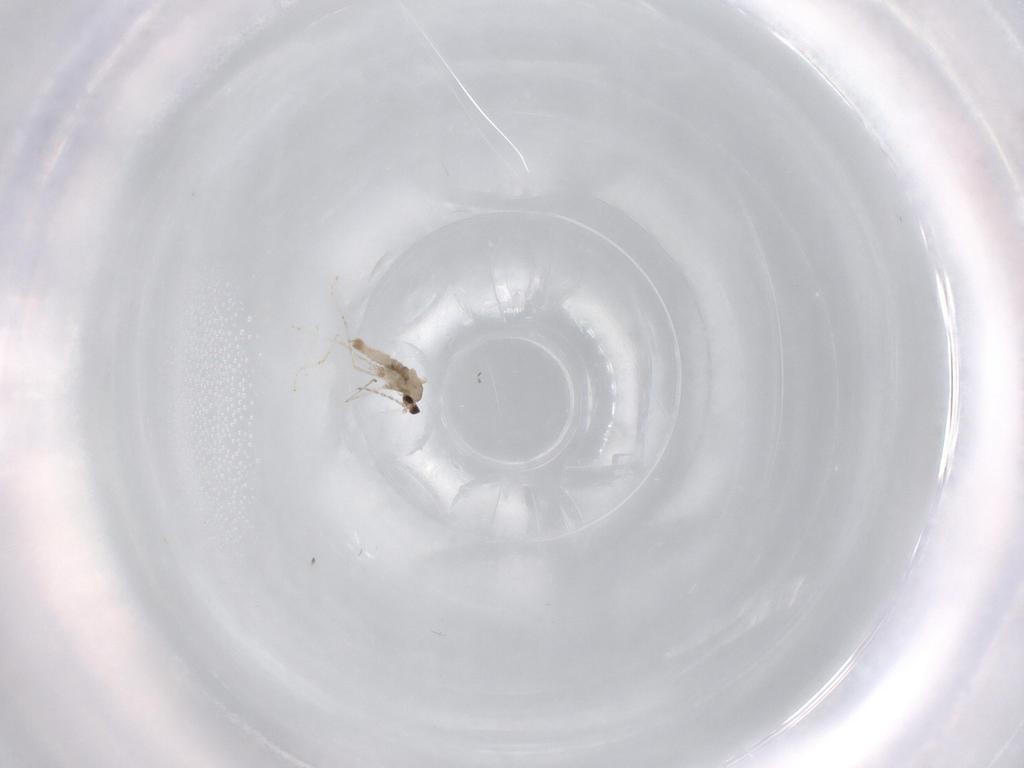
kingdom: Animalia
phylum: Arthropoda
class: Insecta
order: Diptera
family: Cecidomyiidae
